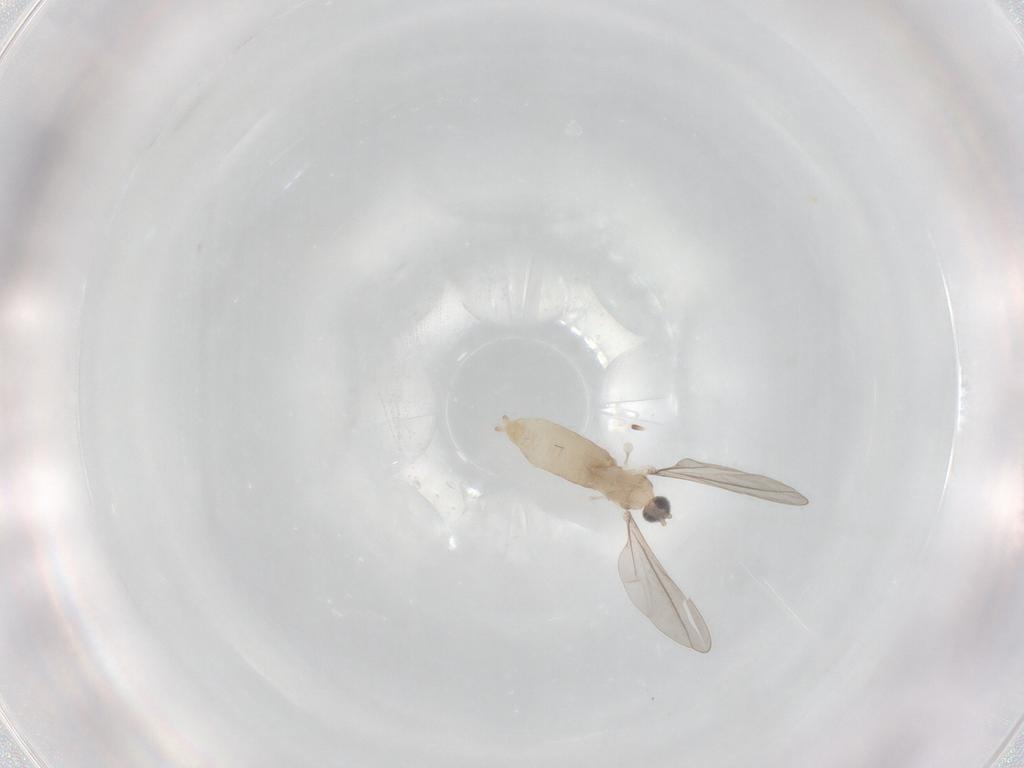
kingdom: Animalia
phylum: Arthropoda
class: Insecta
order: Diptera
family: Cecidomyiidae
